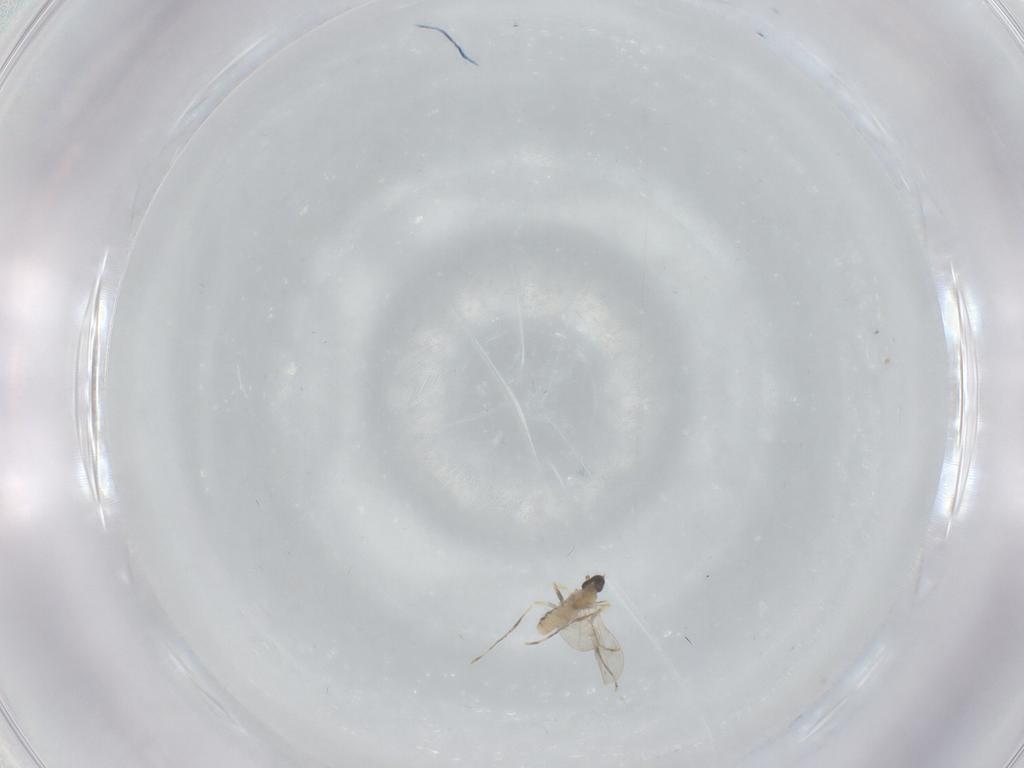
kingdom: Animalia
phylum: Arthropoda
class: Insecta
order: Diptera
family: Cecidomyiidae
